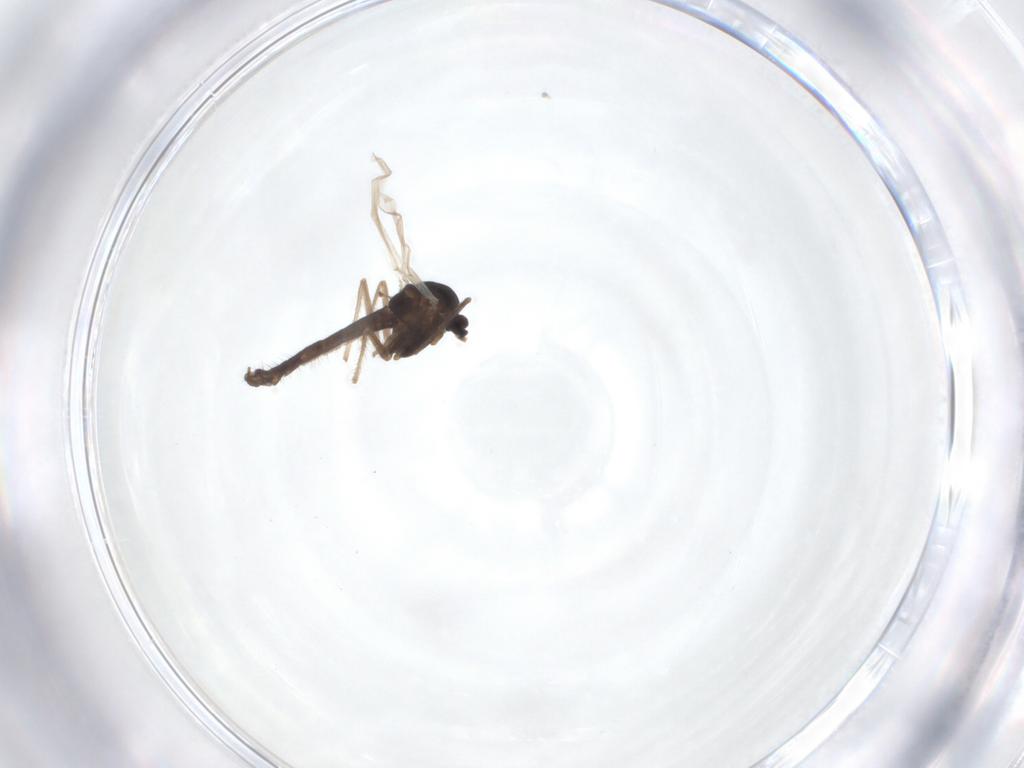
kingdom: Animalia
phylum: Arthropoda
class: Insecta
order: Diptera
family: Chironomidae
